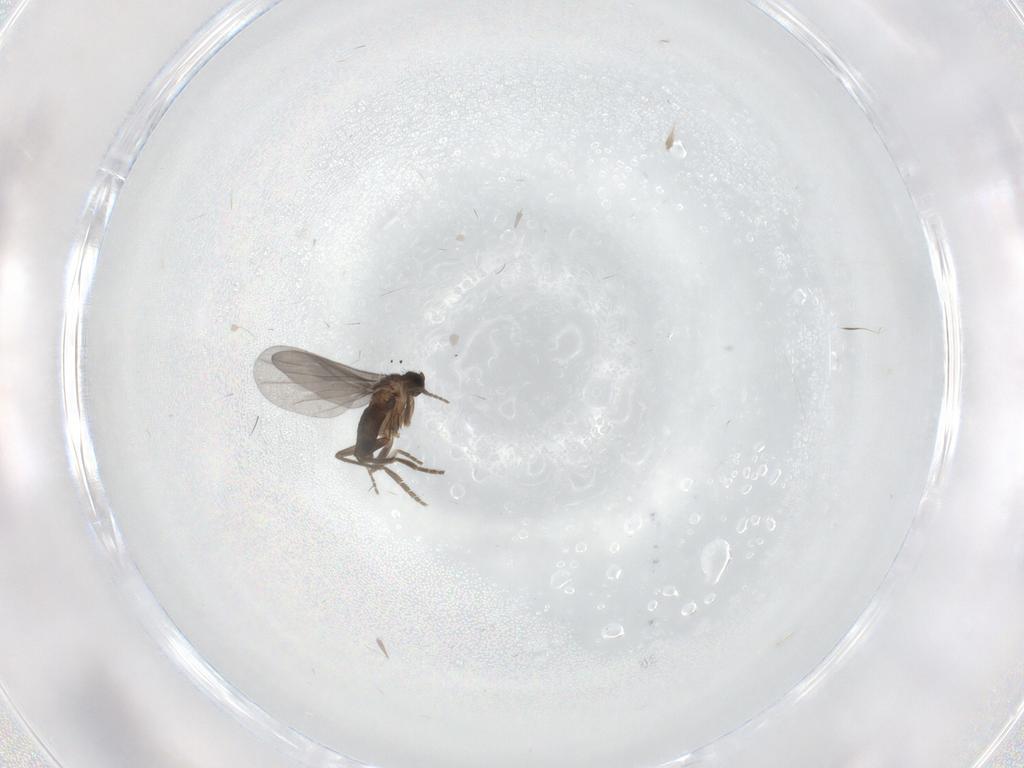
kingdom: Animalia
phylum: Arthropoda
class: Insecta
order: Diptera
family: Phoridae
